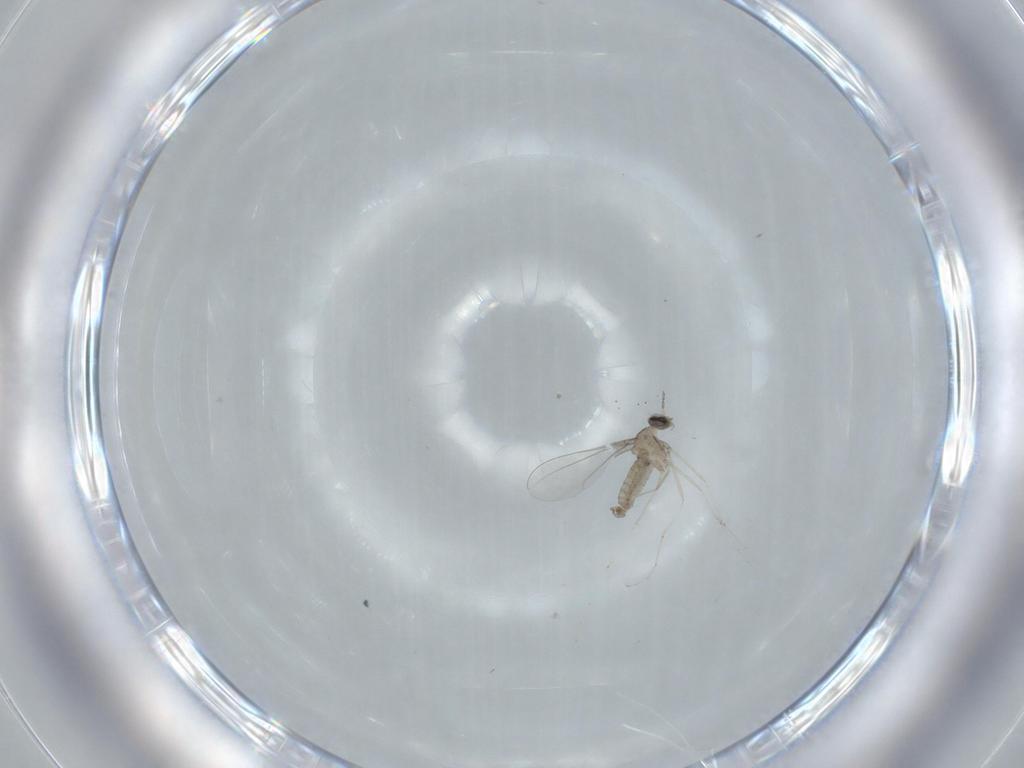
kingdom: Animalia
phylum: Arthropoda
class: Insecta
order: Diptera
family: Cecidomyiidae
